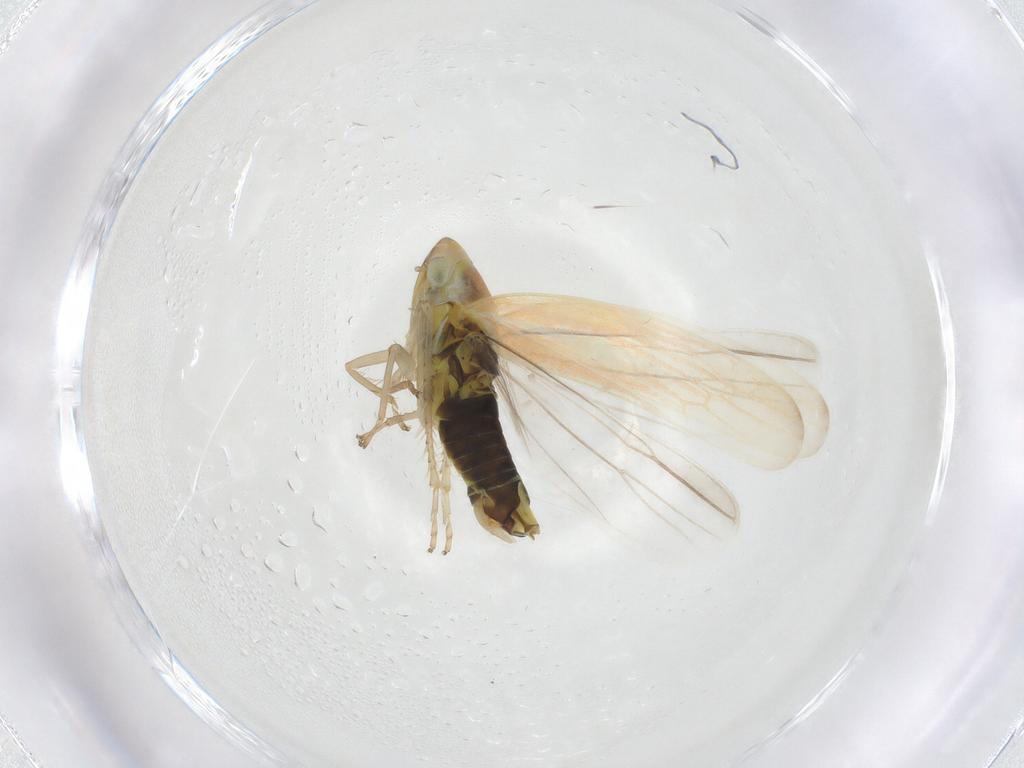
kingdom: Animalia
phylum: Arthropoda
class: Insecta
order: Hemiptera
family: Cicadellidae
